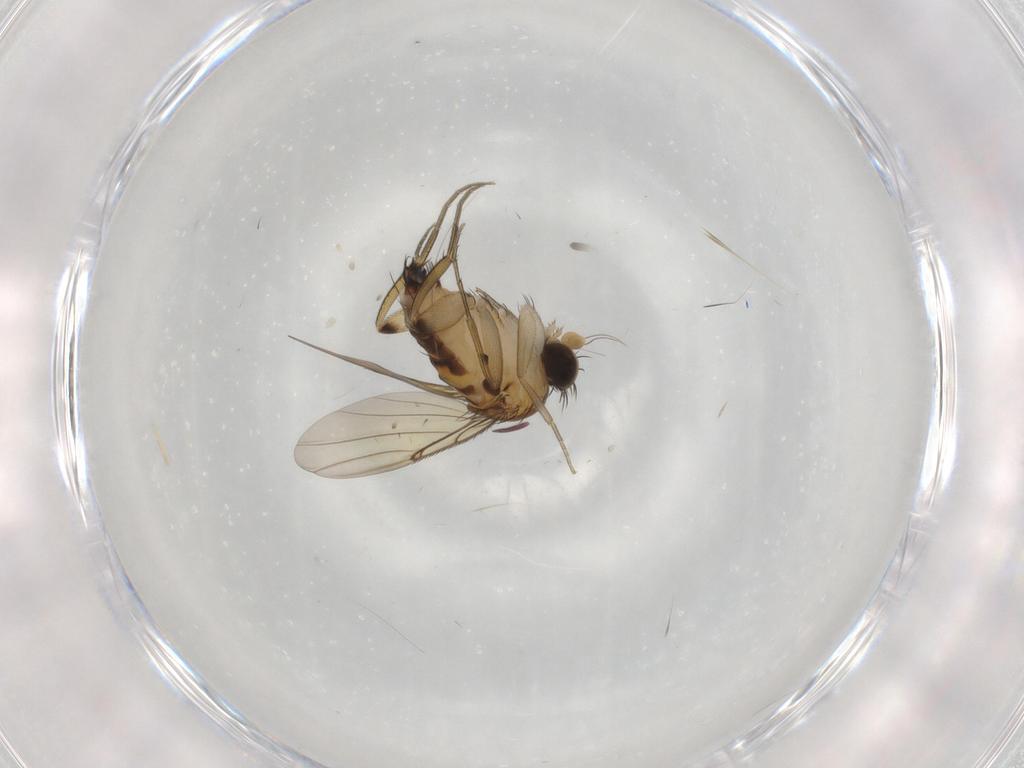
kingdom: Animalia
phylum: Arthropoda
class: Insecta
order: Diptera
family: Phoridae
